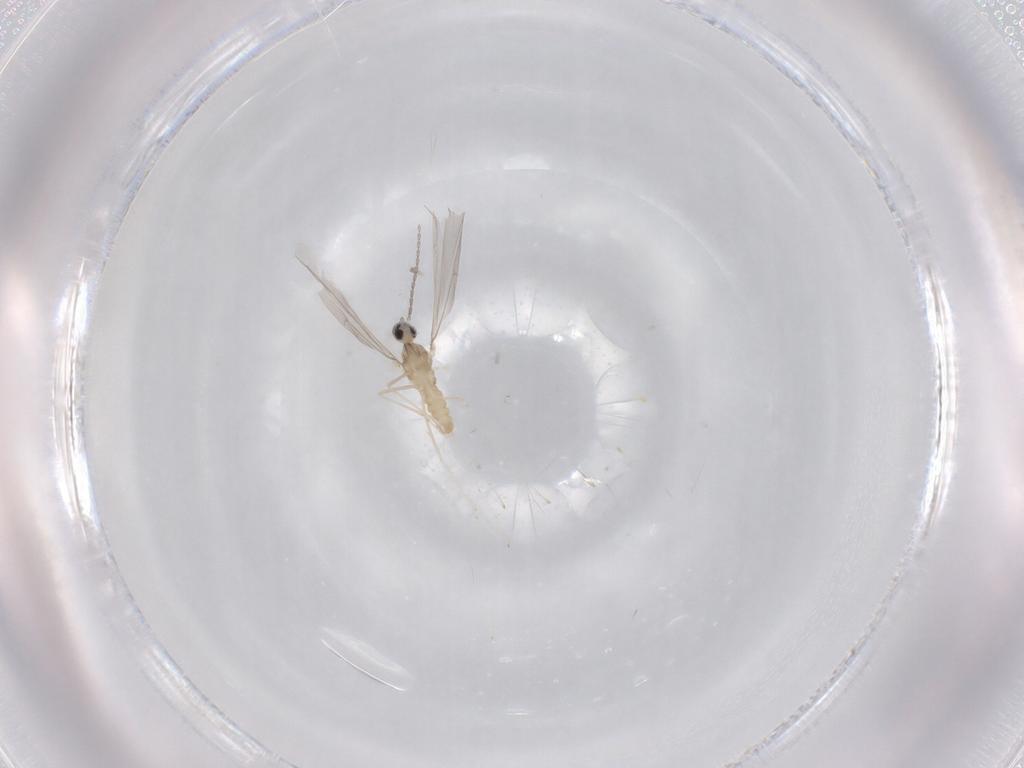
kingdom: Animalia
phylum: Arthropoda
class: Insecta
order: Diptera
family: Cecidomyiidae
